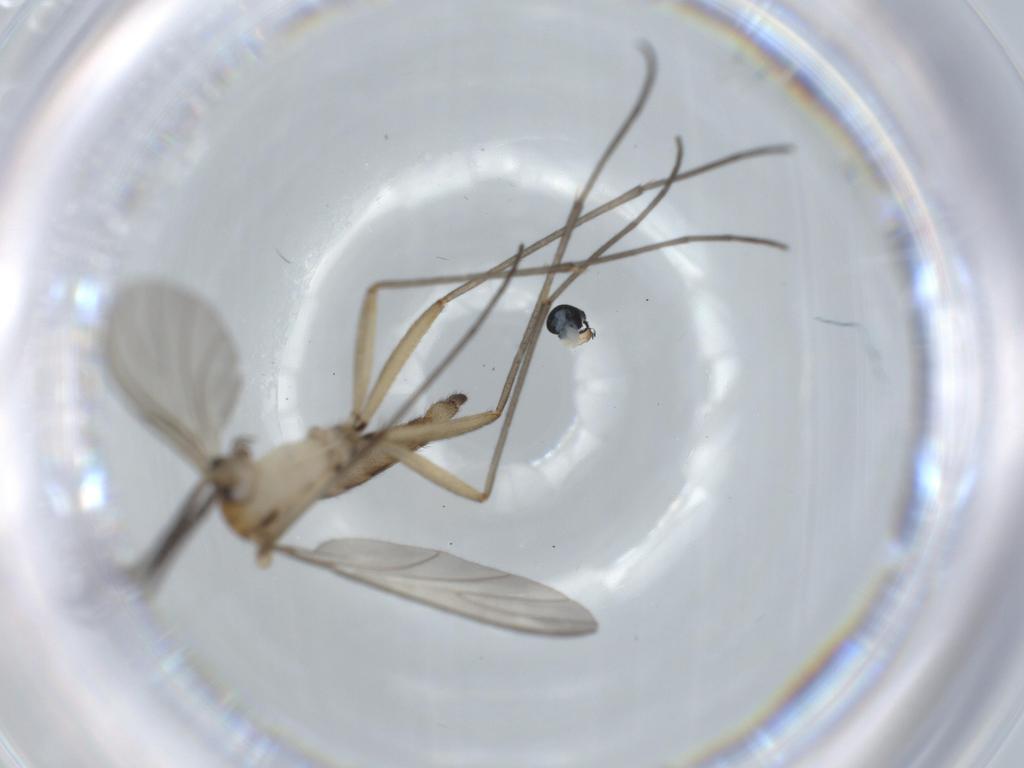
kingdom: Animalia
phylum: Arthropoda
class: Insecta
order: Diptera
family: Sciaridae
